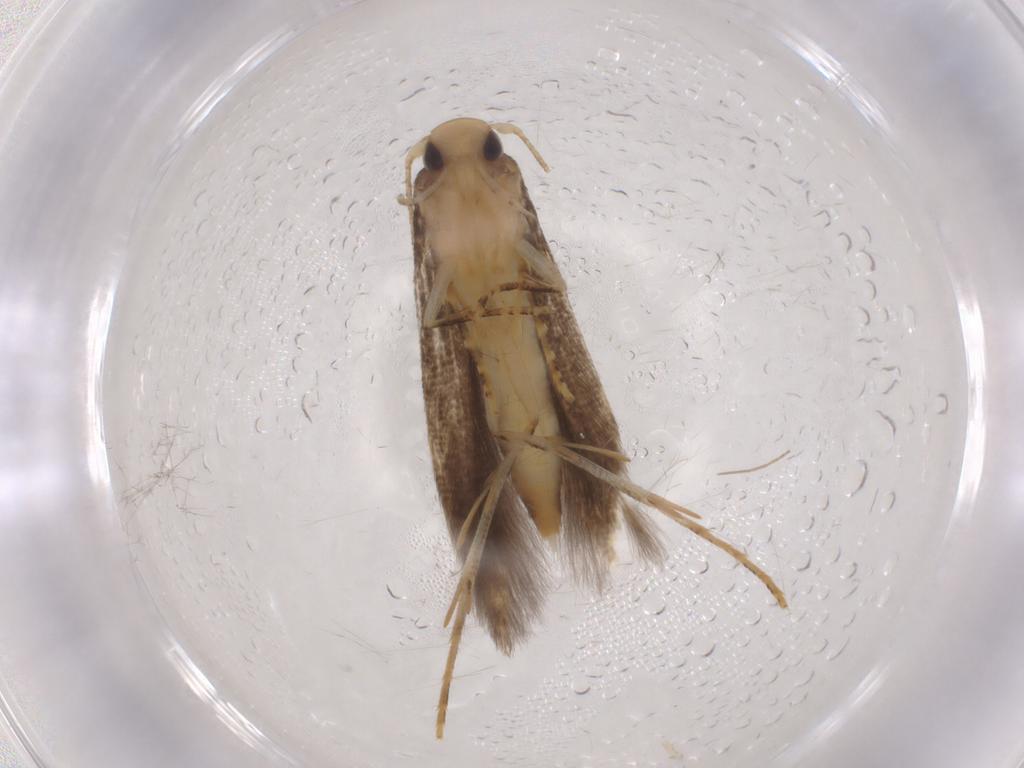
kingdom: Animalia
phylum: Arthropoda
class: Insecta
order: Lepidoptera
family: Gelechiidae
